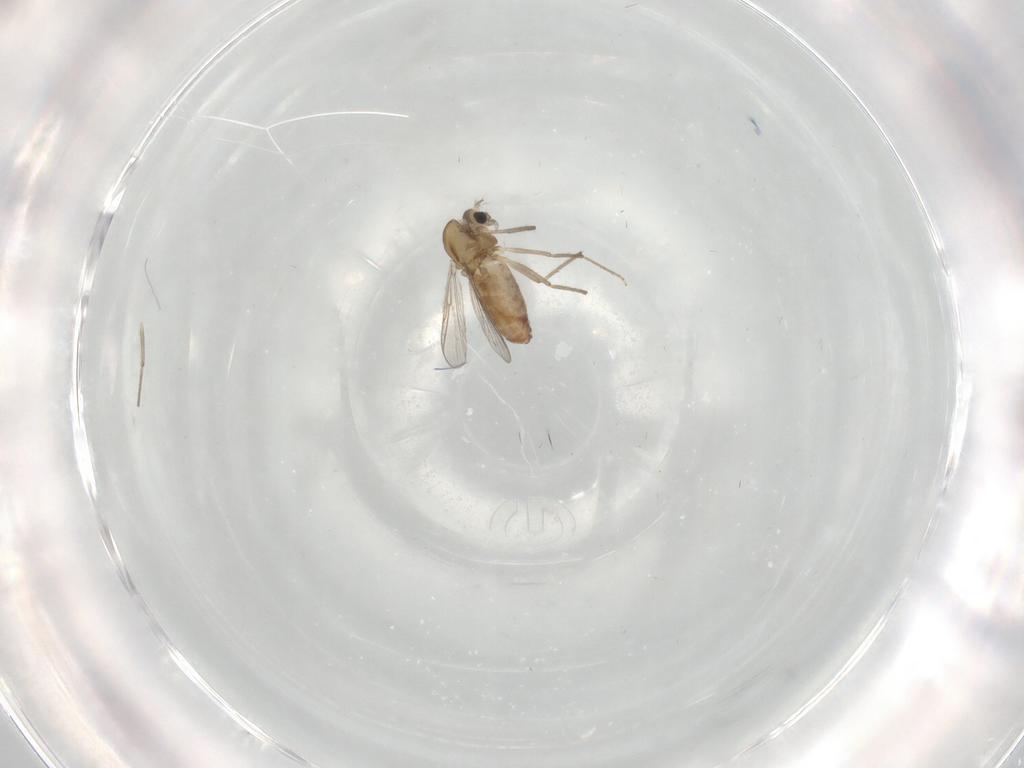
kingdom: Animalia
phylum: Arthropoda
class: Insecta
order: Diptera
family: Chironomidae
